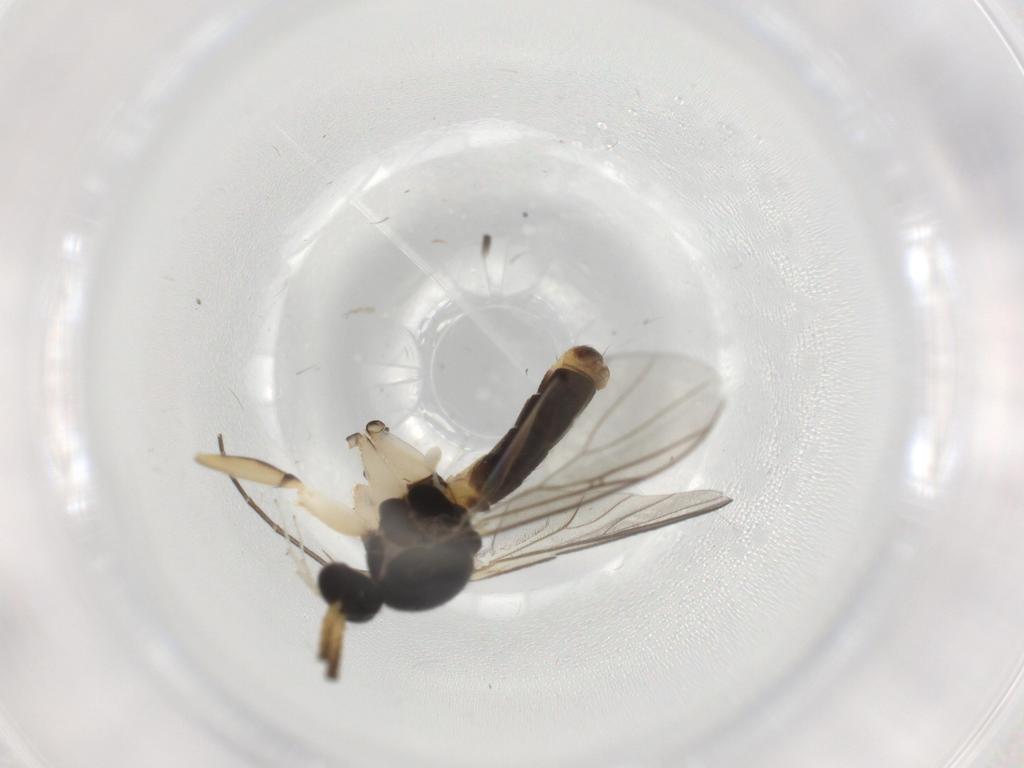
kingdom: Animalia
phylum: Arthropoda
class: Insecta
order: Diptera
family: Mycetophilidae
